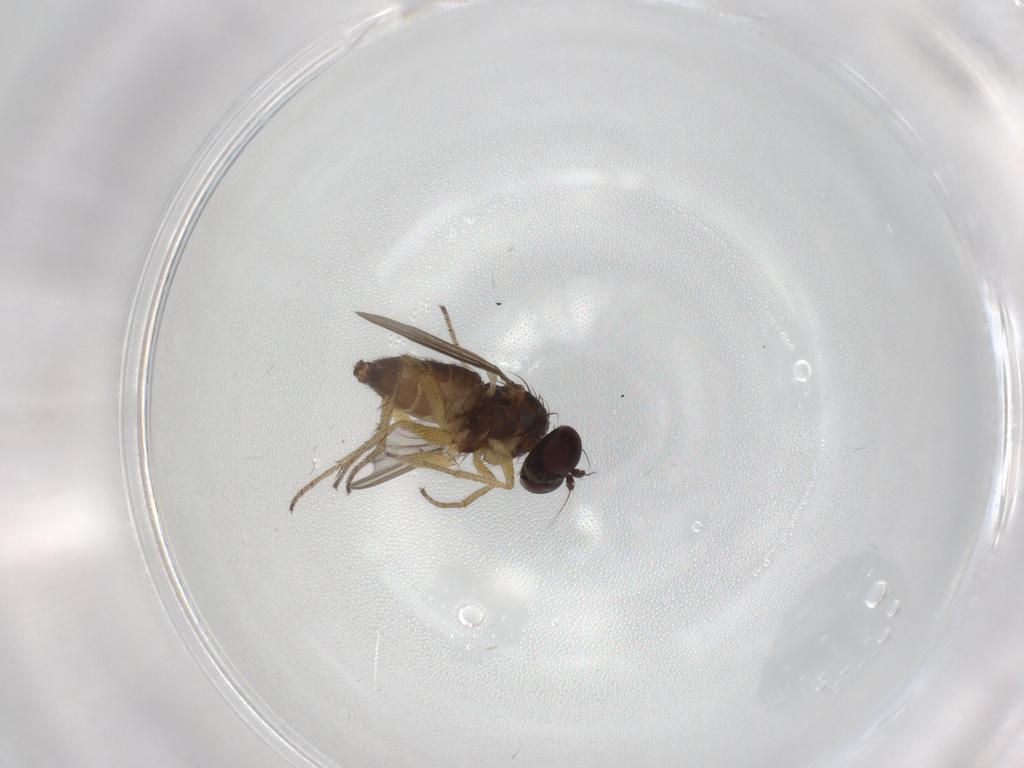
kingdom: Animalia
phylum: Arthropoda
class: Insecta
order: Diptera
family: Dolichopodidae
